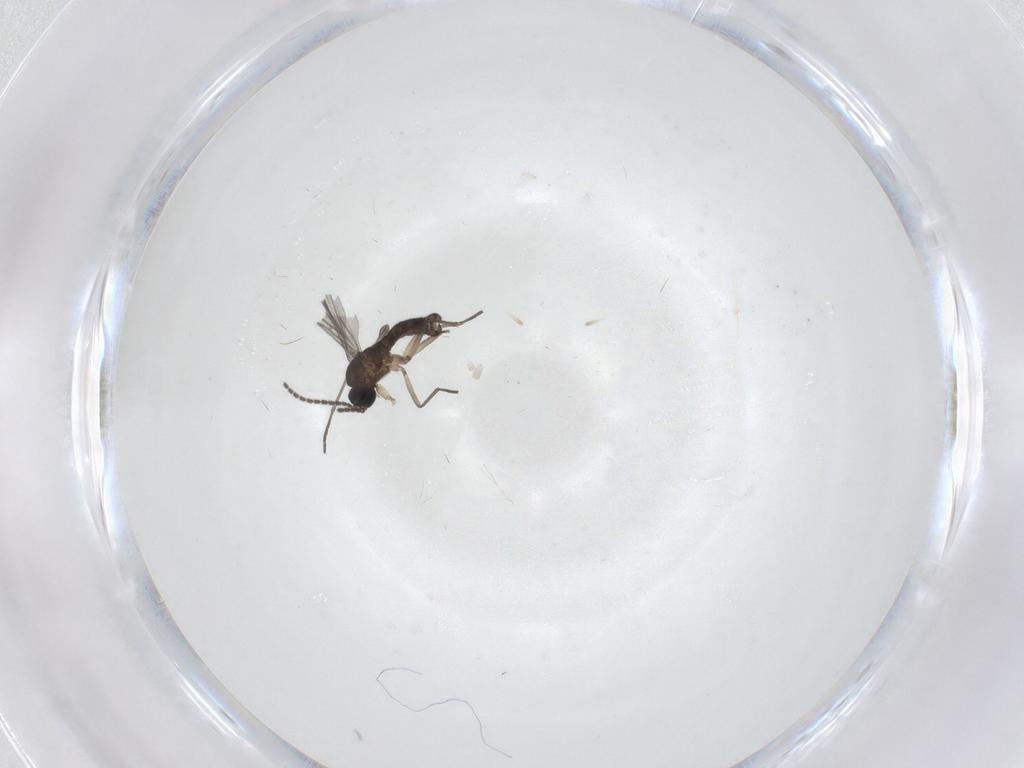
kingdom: Animalia
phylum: Arthropoda
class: Insecta
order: Diptera
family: Sciaridae
